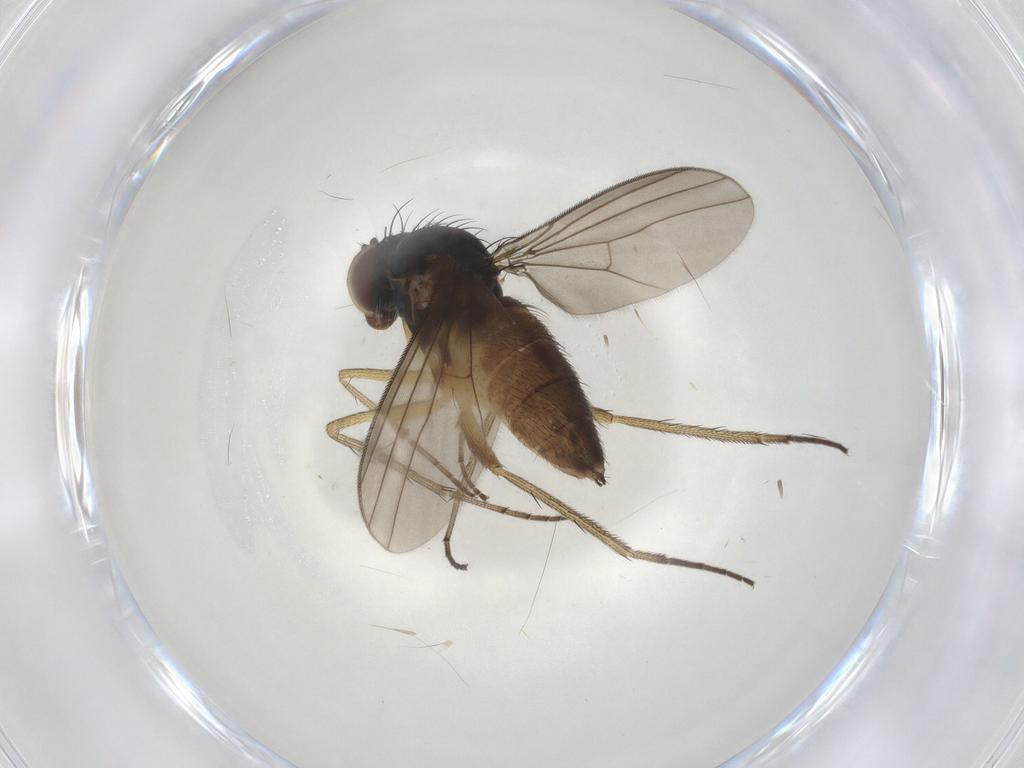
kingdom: Animalia
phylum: Arthropoda
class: Insecta
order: Diptera
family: Dolichopodidae
